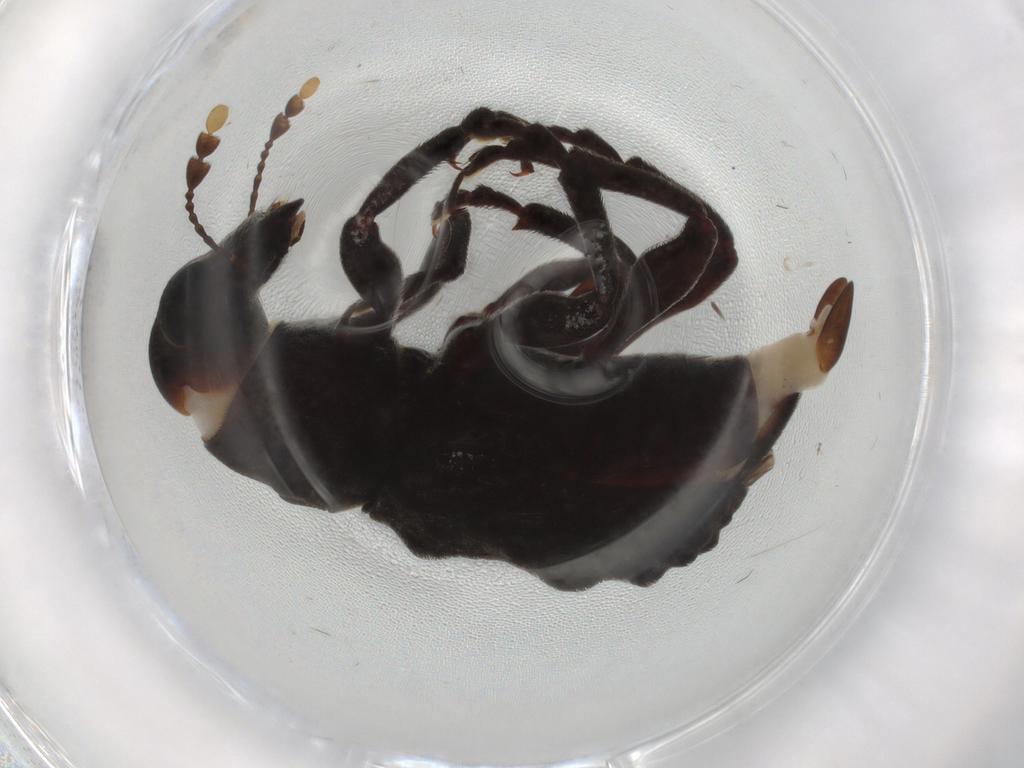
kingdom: Animalia
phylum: Arthropoda
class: Insecta
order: Coleoptera
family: Anthribidae
